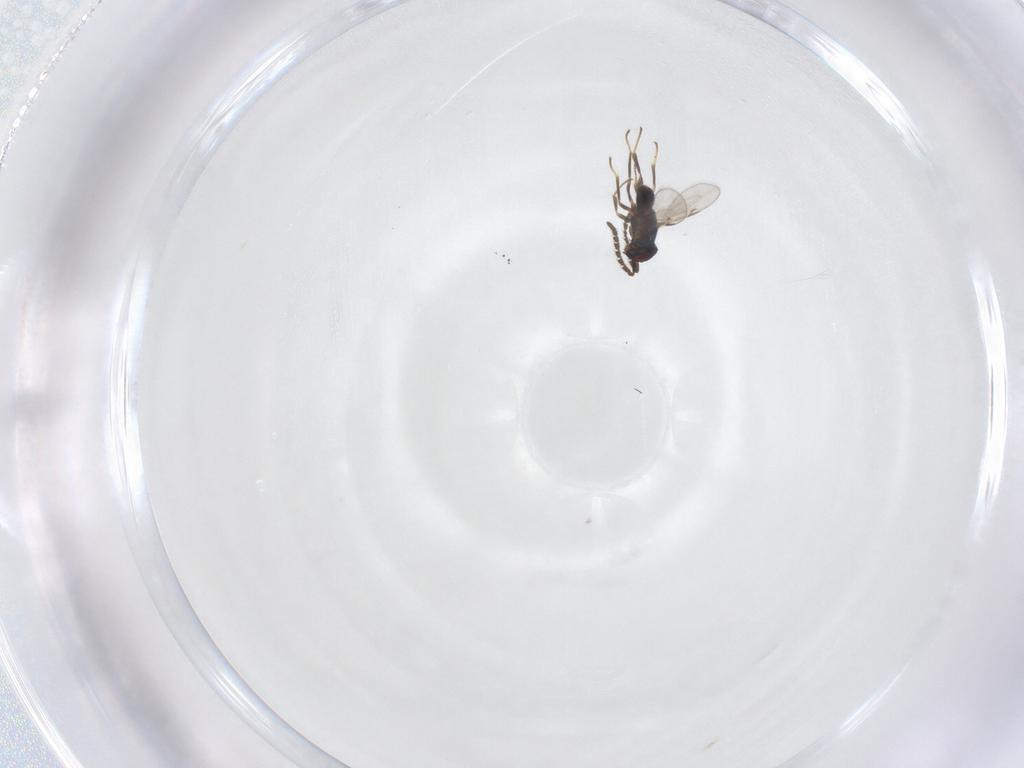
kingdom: Animalia
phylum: Arthropoda
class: Insecta
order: Hymenoptera
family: Encyrtidae
